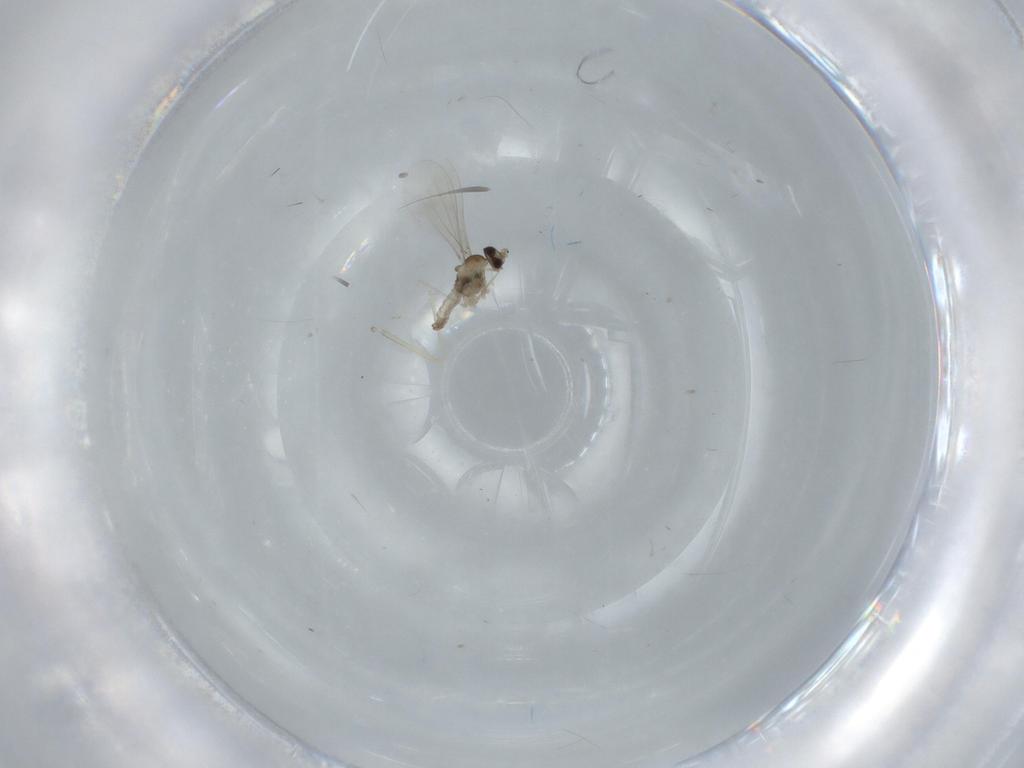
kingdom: Animalia
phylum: Arthropoda
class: Insecta
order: Diptera
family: Cecidomyiidae
